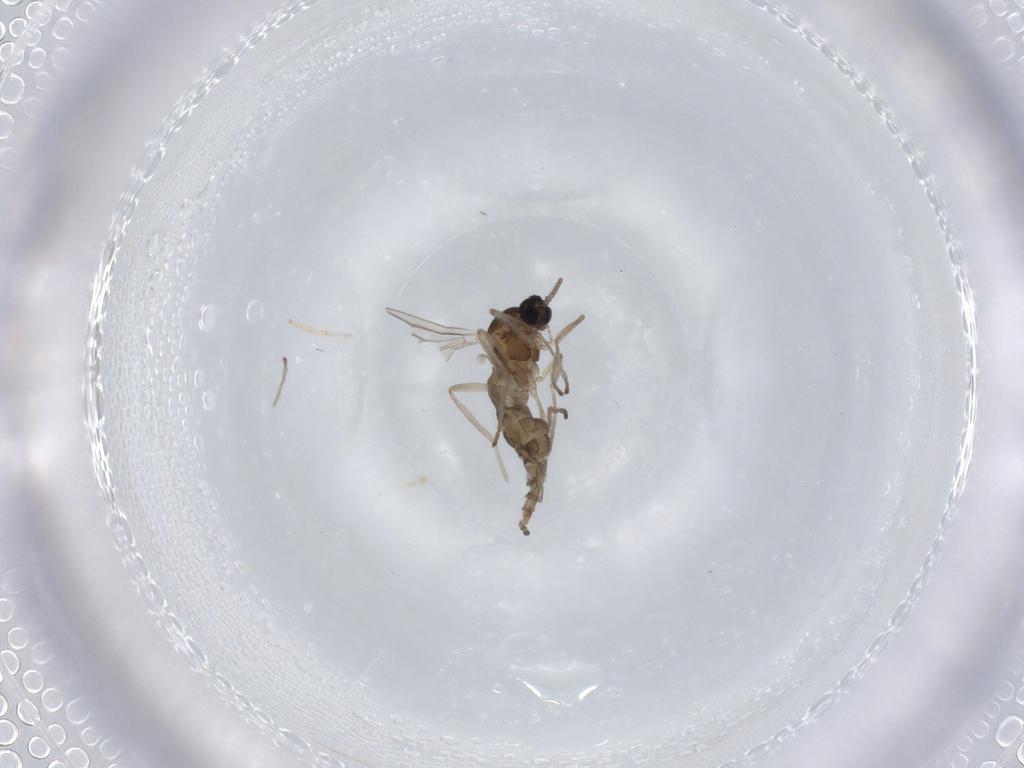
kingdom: Animalia
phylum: Arthropoda
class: Insecta
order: Diptera
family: Cecidomyiidae
